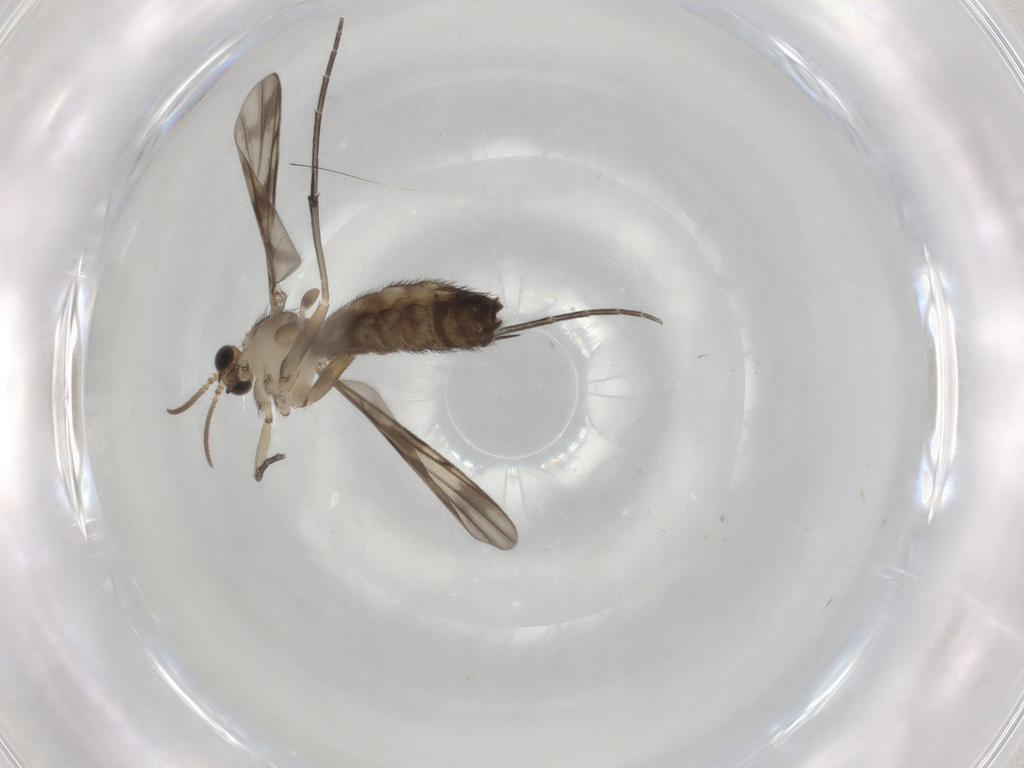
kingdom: Animalia
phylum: Arthropoda
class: Insecta
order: Diptera
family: Keroplatidae
